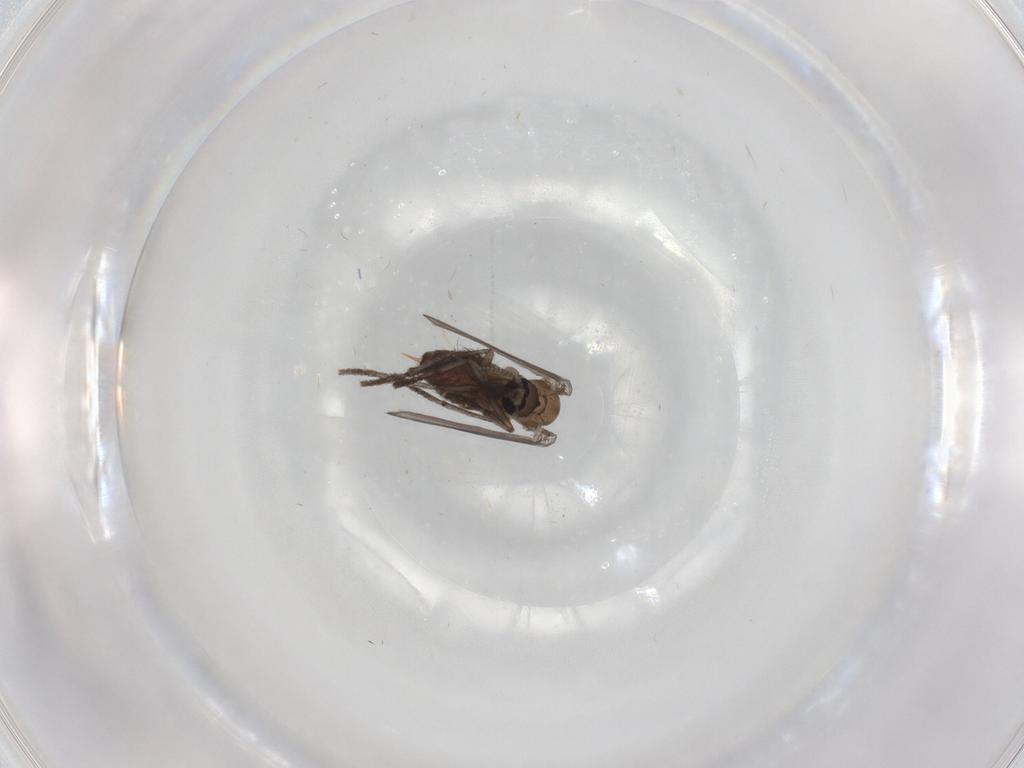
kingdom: Animalia
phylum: Arthropoda
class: Insecta
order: Diptera
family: Psychodidae
